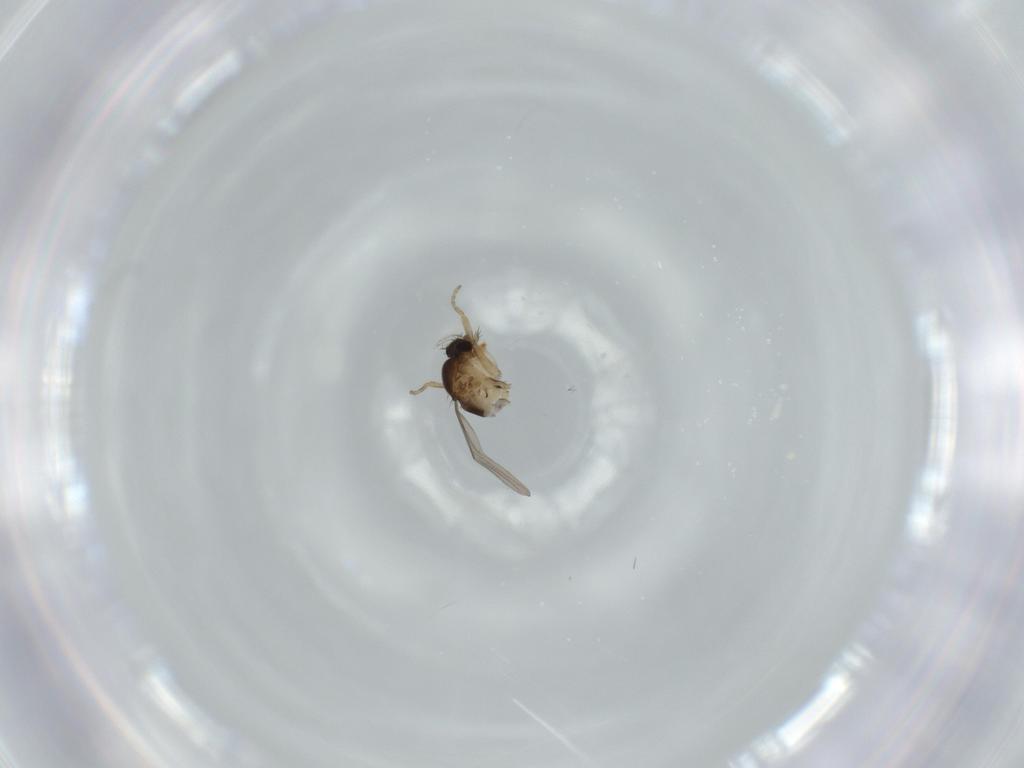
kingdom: Animalia
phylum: Arthropoda
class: Insecta
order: Diptera
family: Phoridae
